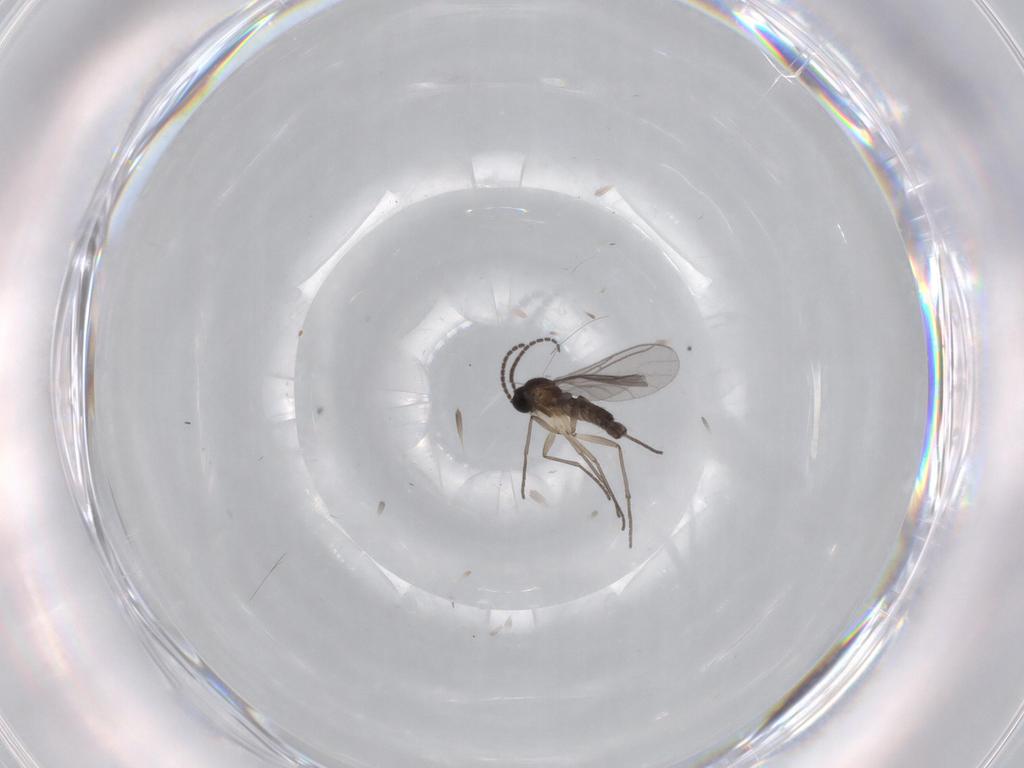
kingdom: Animalia
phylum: Arthropoda
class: Insecta
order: Diptera
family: Sciaridae
